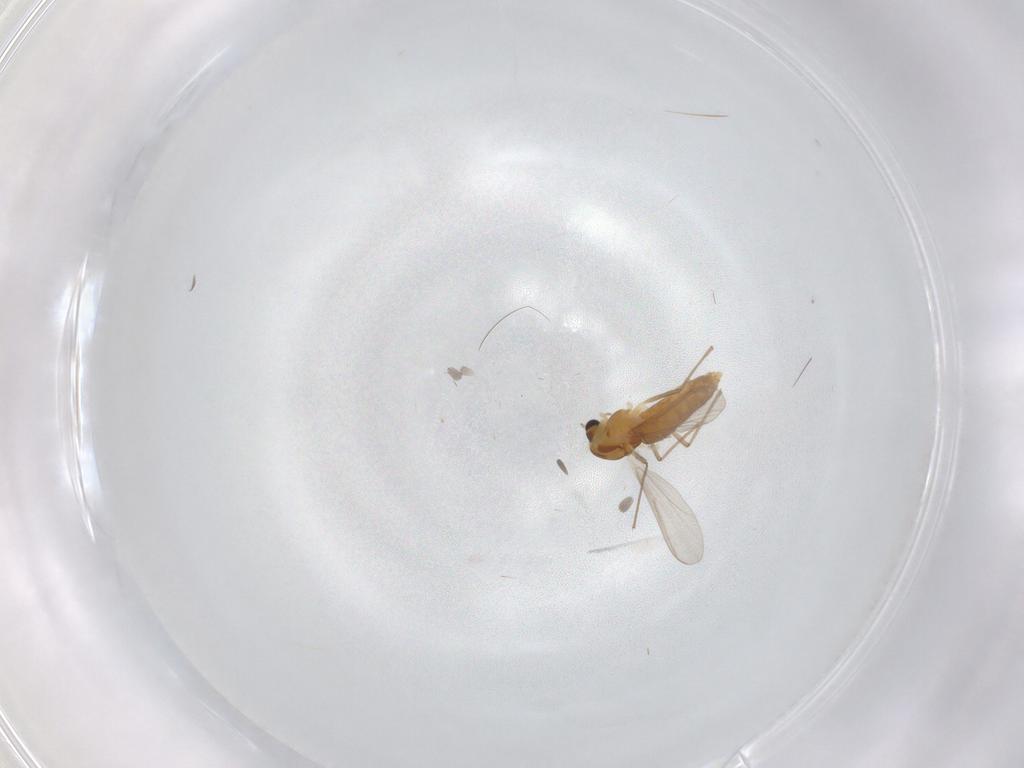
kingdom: Animalia
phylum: Arthropoda
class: Insecta
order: Diptera
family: Chironomidae
